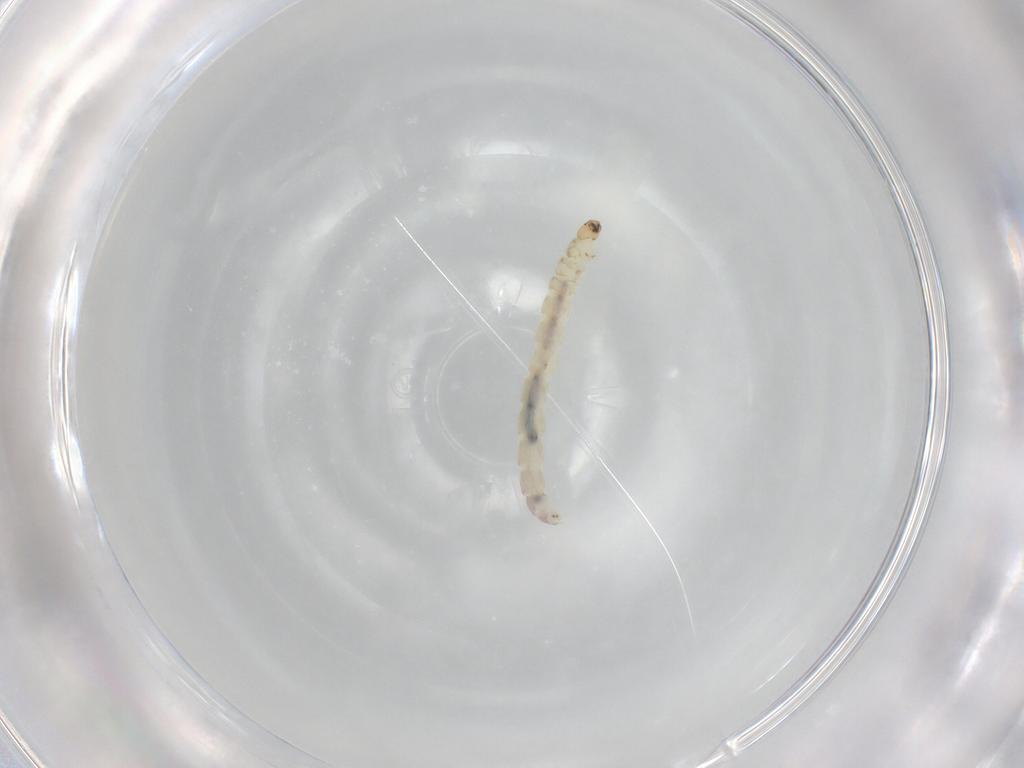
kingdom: Animalia
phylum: Arthropoda
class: Insecta
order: Diptera
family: Chironomidae
